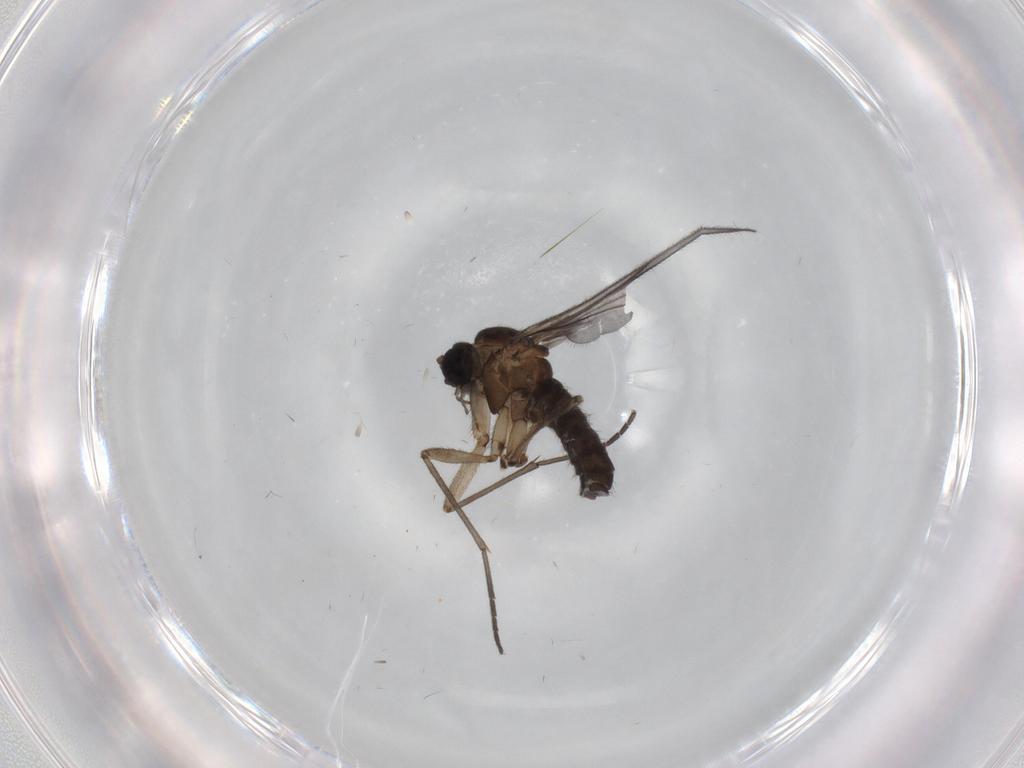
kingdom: Animalia
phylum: Arthropoda
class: Insecta
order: Diptera
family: Sciaridae
